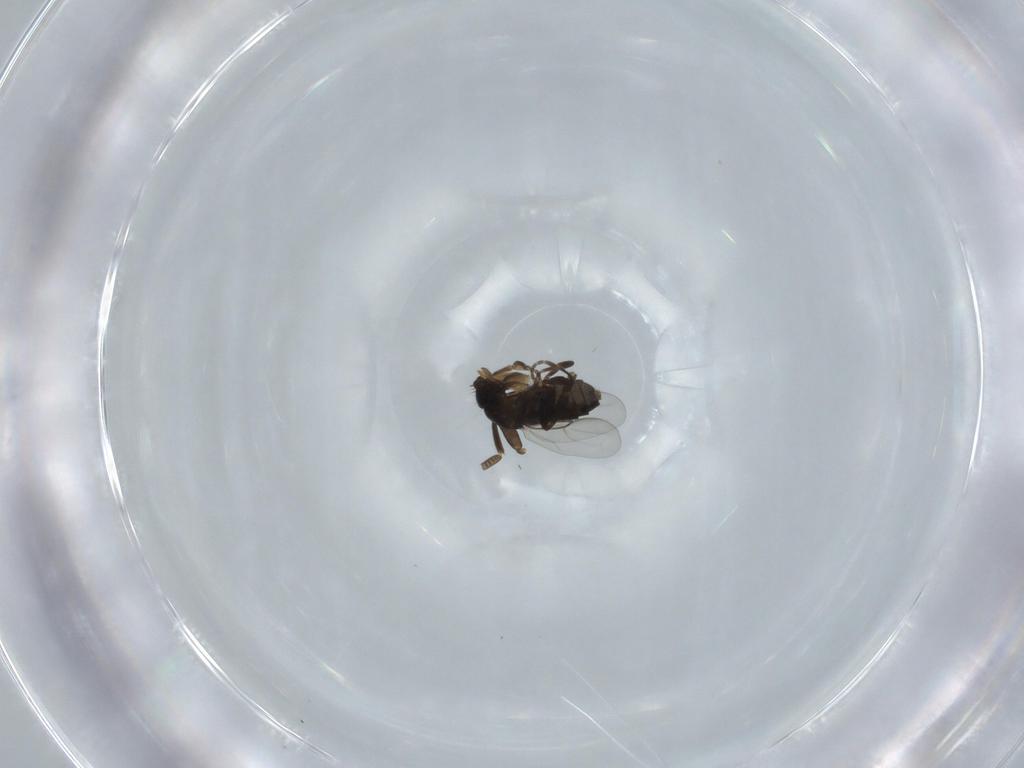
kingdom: Animalia
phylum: Arthropoda
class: Insecta
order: Diptera
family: Phoridae
